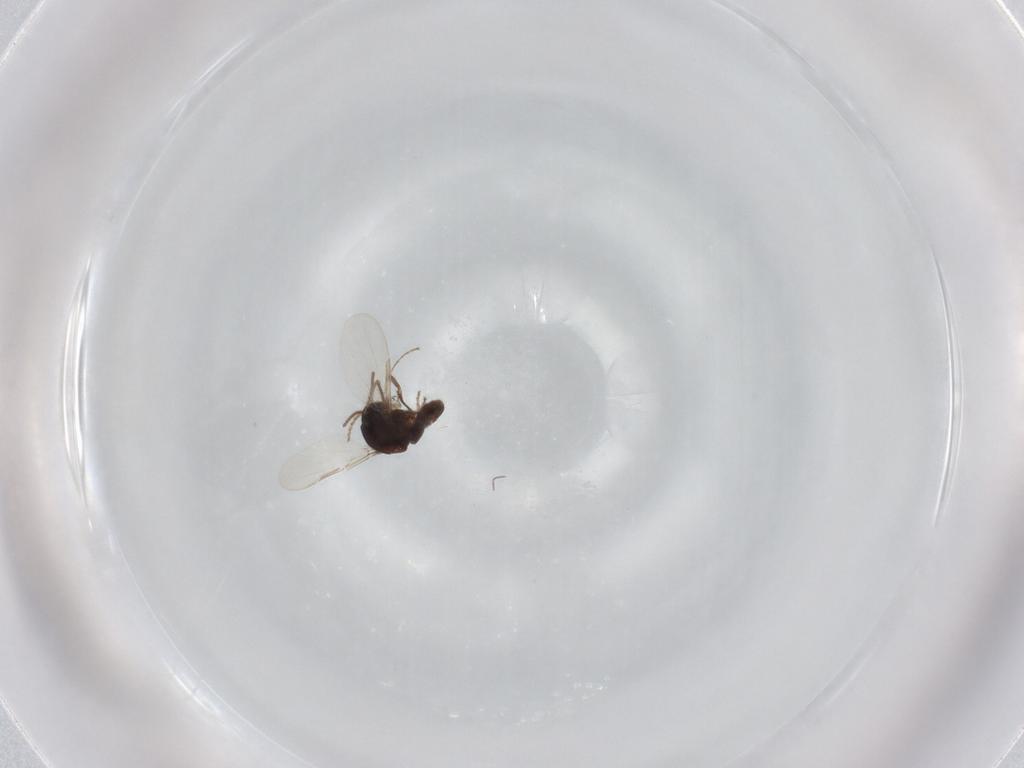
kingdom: Animalia
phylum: Arthropoda
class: Insecta
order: Diptera
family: Ceratopogonidae
